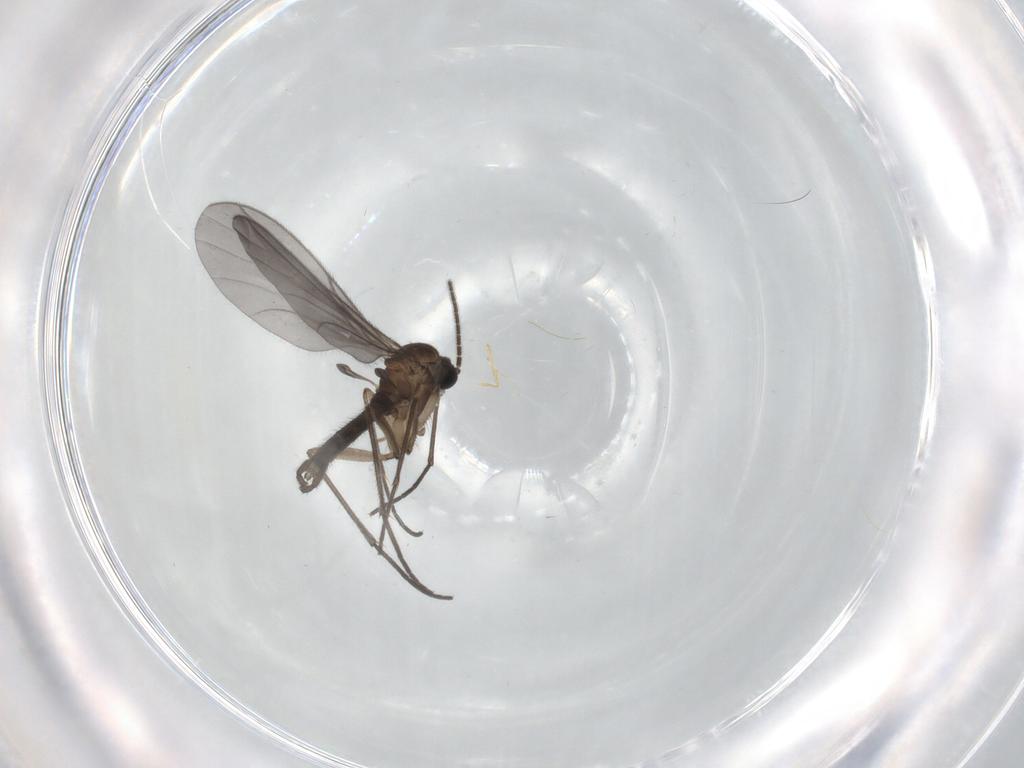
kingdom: Animalia
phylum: Arthropoda
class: Insecta
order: Diptera
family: Sciaridae
